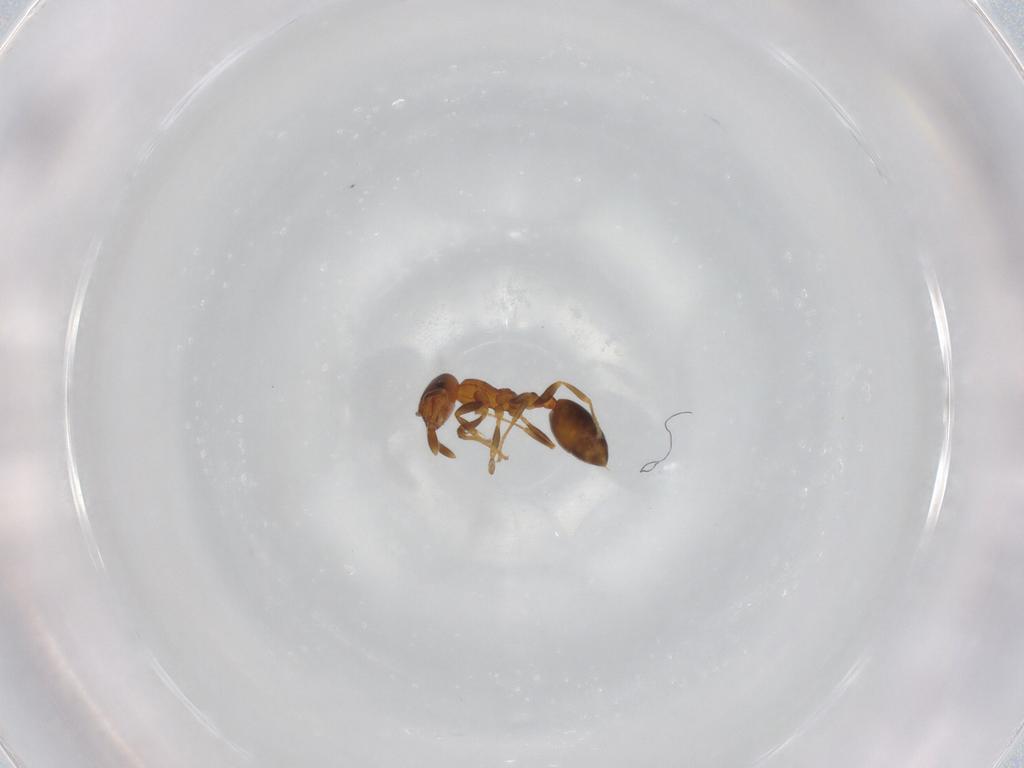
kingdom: Animalia
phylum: Arthropoda
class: Insecta
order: Hymenoptera
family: Formicidae
